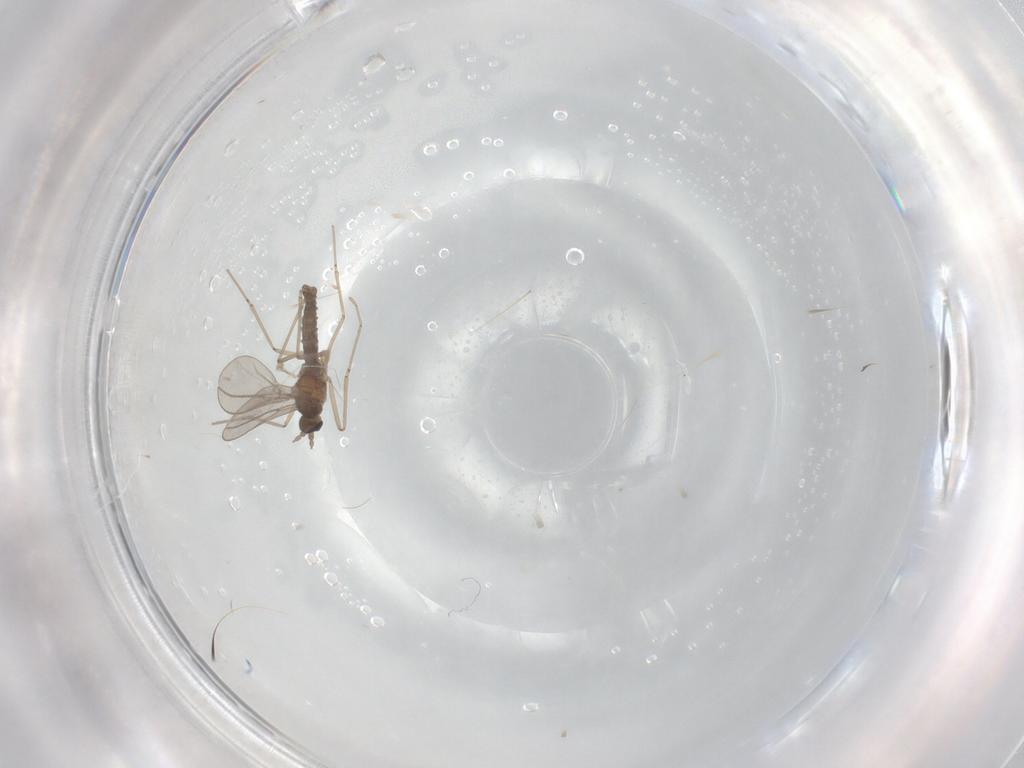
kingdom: Animalia
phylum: Arthropoda
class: Insecta
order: Diptera
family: Cecidomyiidae
